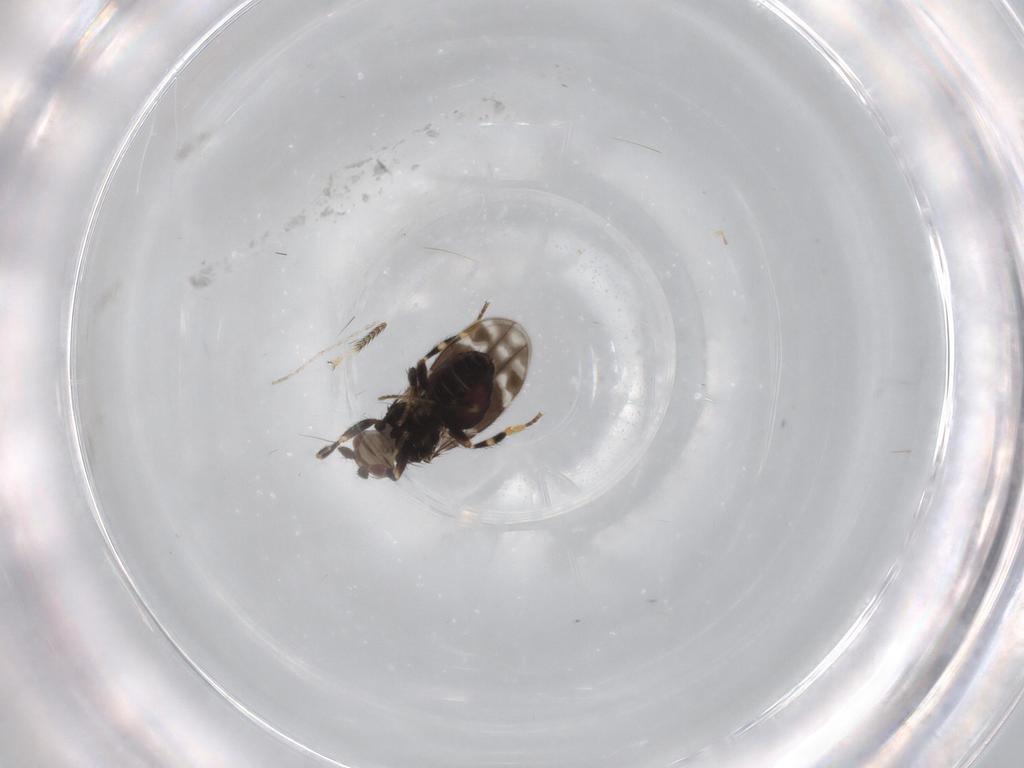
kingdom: Animalia
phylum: Arthropoda
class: Insecta
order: Diptera
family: Sphaeroceridae
